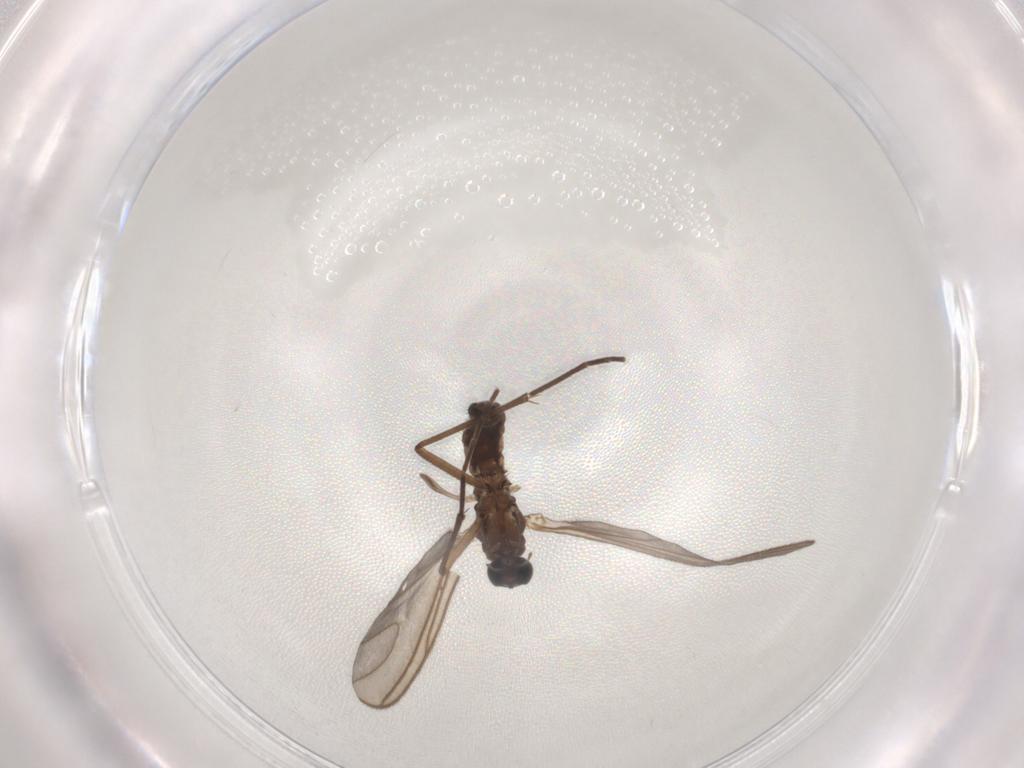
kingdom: Animalia
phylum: Arthropoda
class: Insecta
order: Diptera
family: Sciaridae
